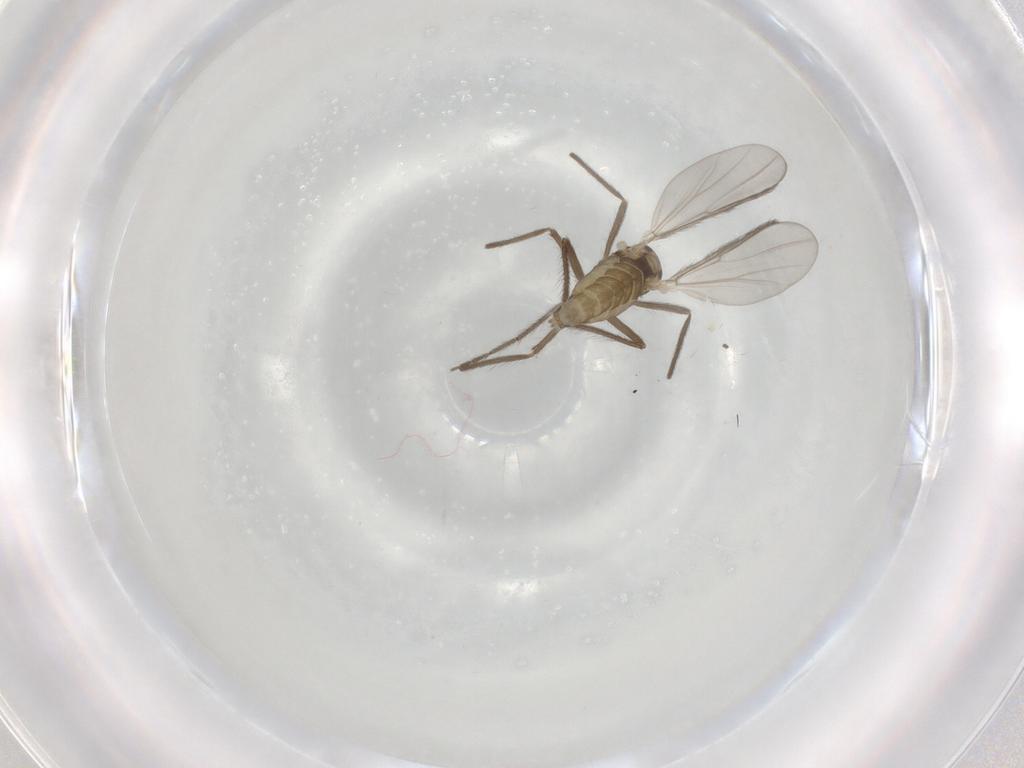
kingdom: Animalia
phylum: Arthropoda
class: Insecta
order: Diptera
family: Chironomidae
